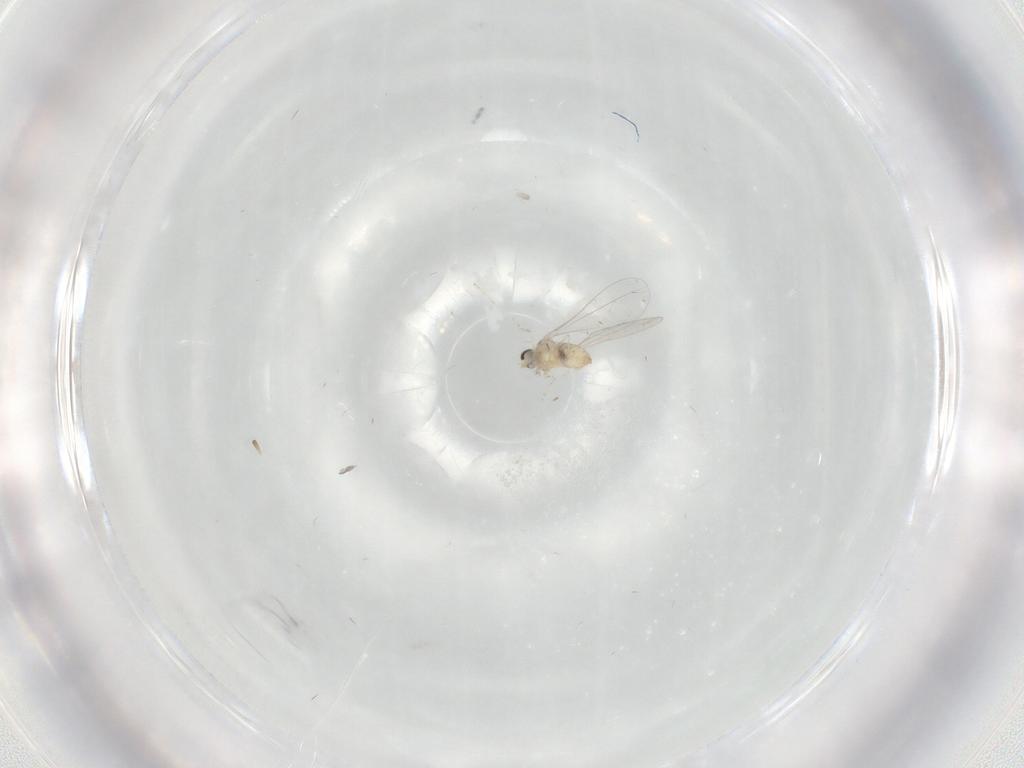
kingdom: Animalia
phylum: Arthropoda
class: Insecta
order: Diptera
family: Cecidomyiidae
